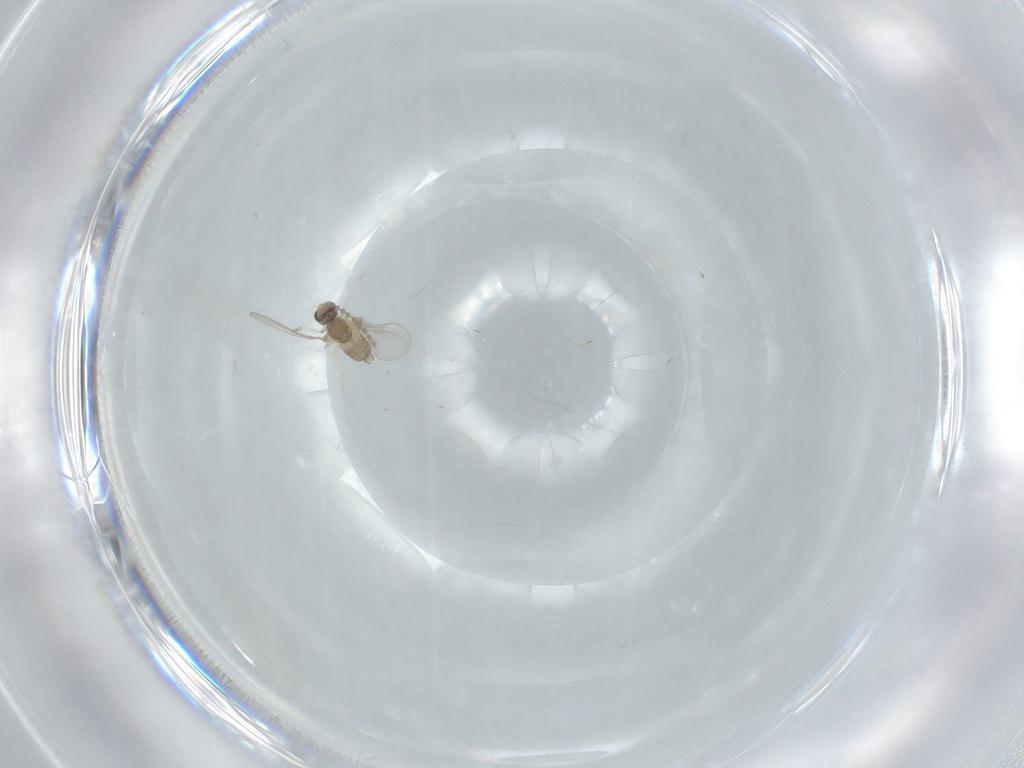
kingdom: Animalia
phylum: Arthropoda
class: Insecta
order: Diptera
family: Cecidomyiidae
